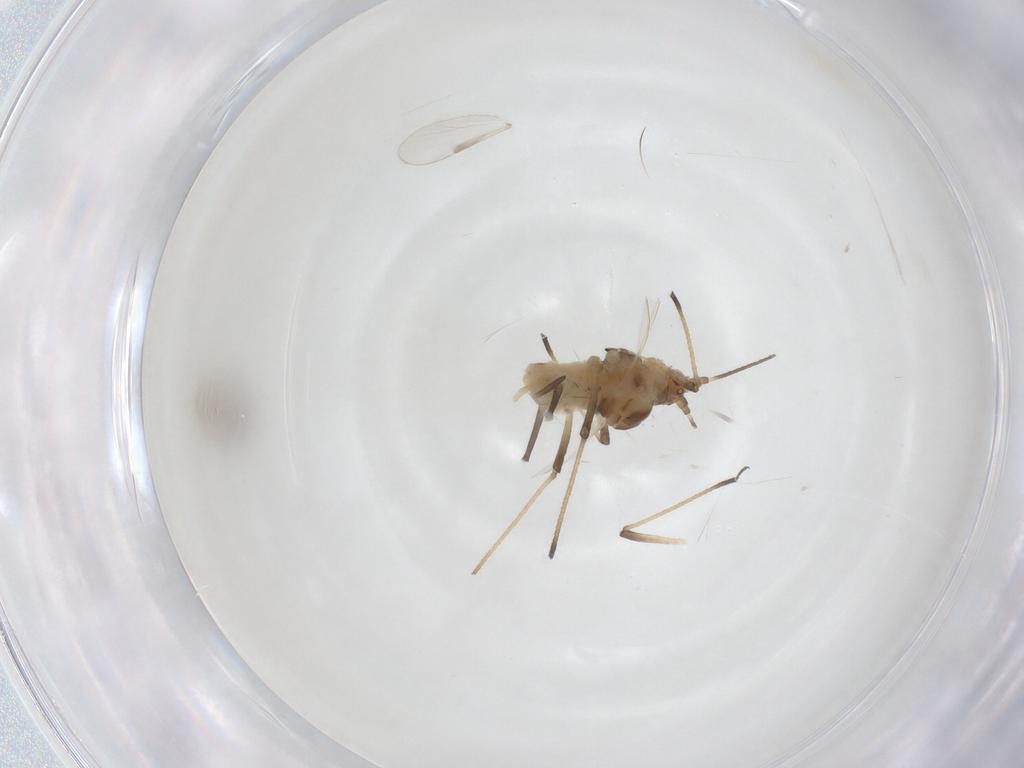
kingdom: Animalia
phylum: Arthropoda
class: Insecta
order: Hemiptera
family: Aphididae
